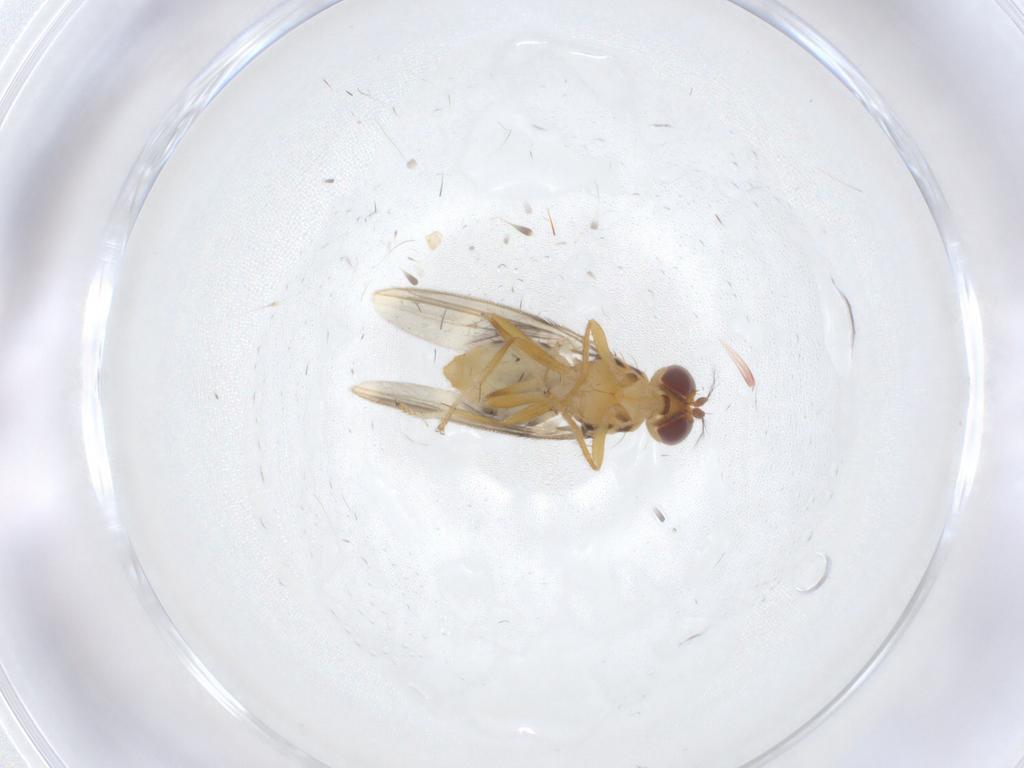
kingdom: Animalia
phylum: Arthropoda
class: Insecta
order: Diptera
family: Periscelididae
